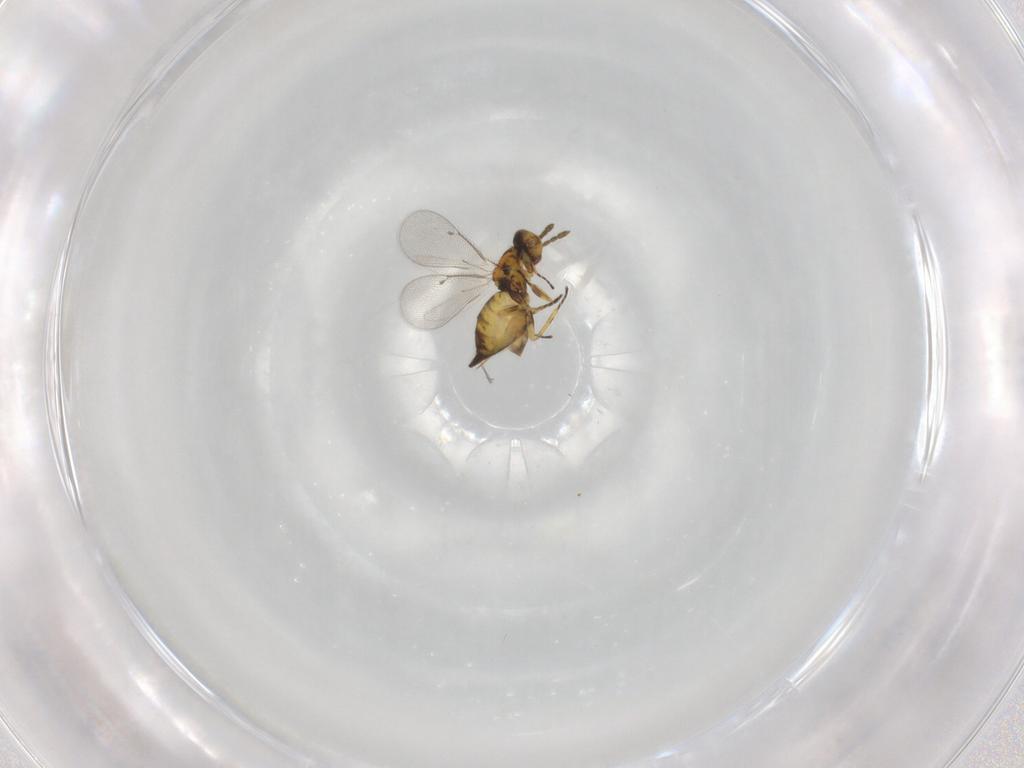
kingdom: Animalia
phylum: Arthropoda
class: Insecta
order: Hymenoptera
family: Eulophidae
